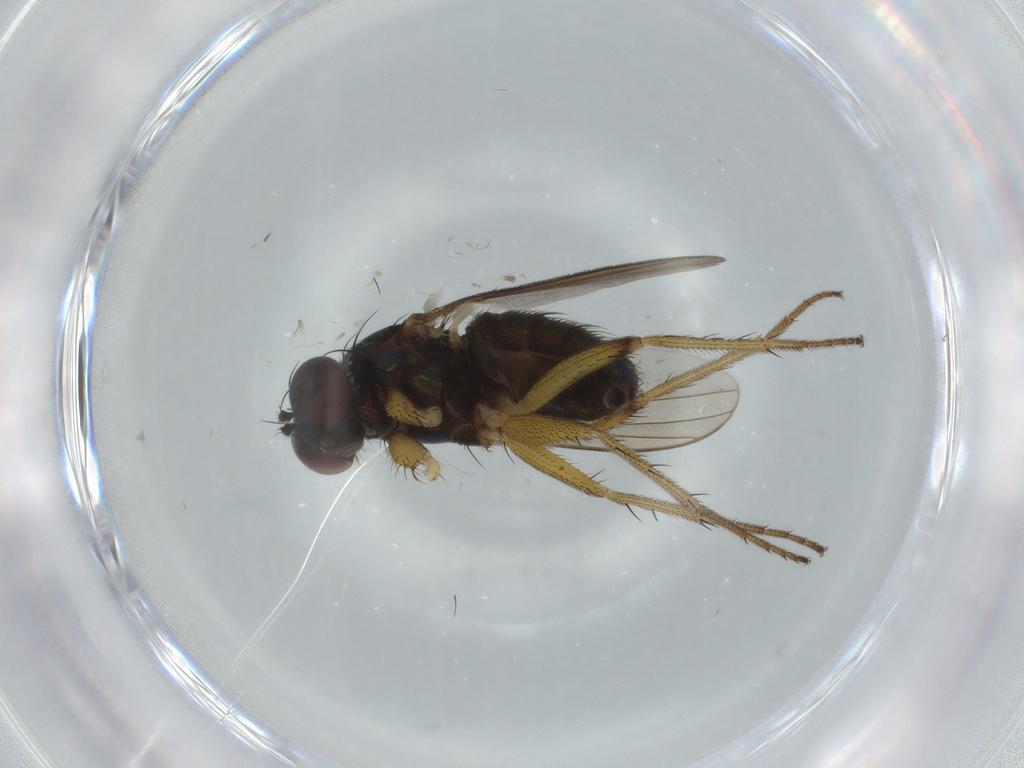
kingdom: Animalia
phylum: Arthropoda
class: Insecta
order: Diptera
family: Dolichopodidae
